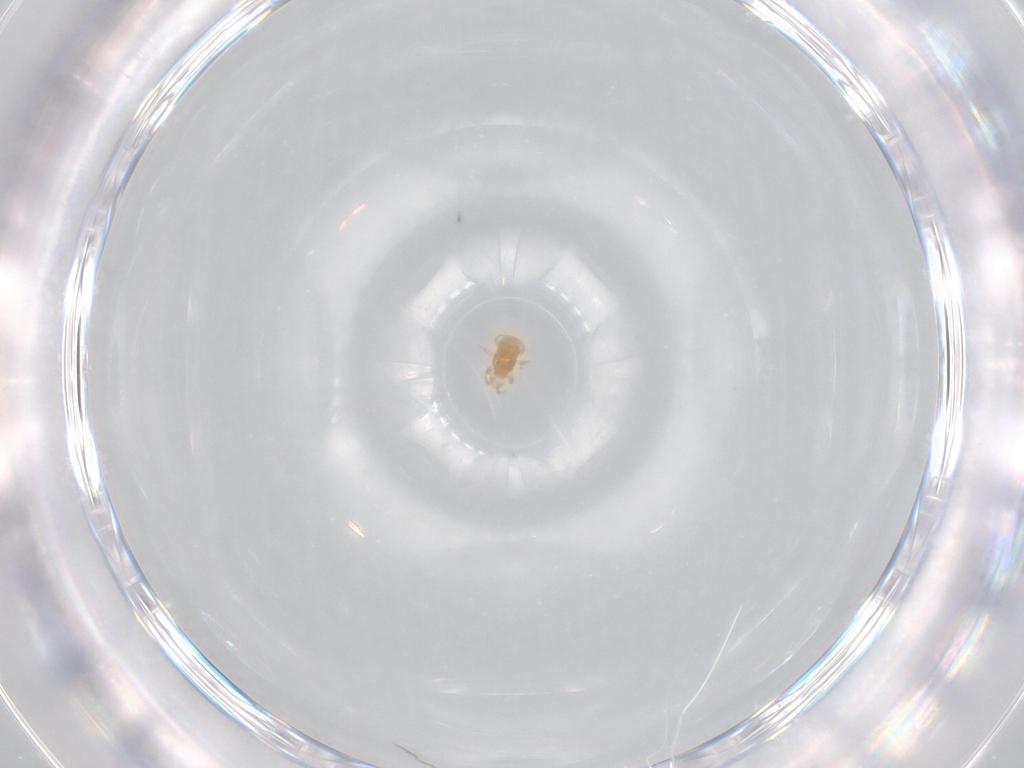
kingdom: Animalia
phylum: Arthropoda
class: Arachnida
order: Mesostigmata
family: Digamasellidae
